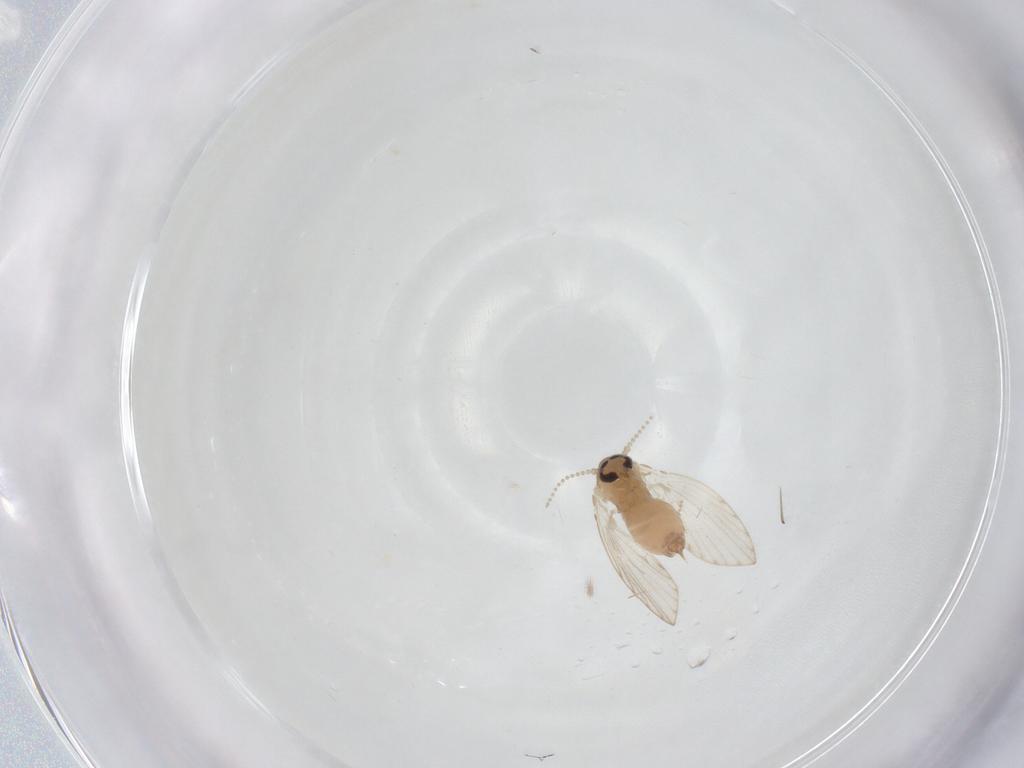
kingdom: Animalia
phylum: Arthropoda
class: Insecta
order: Diptera
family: Psychodidae
